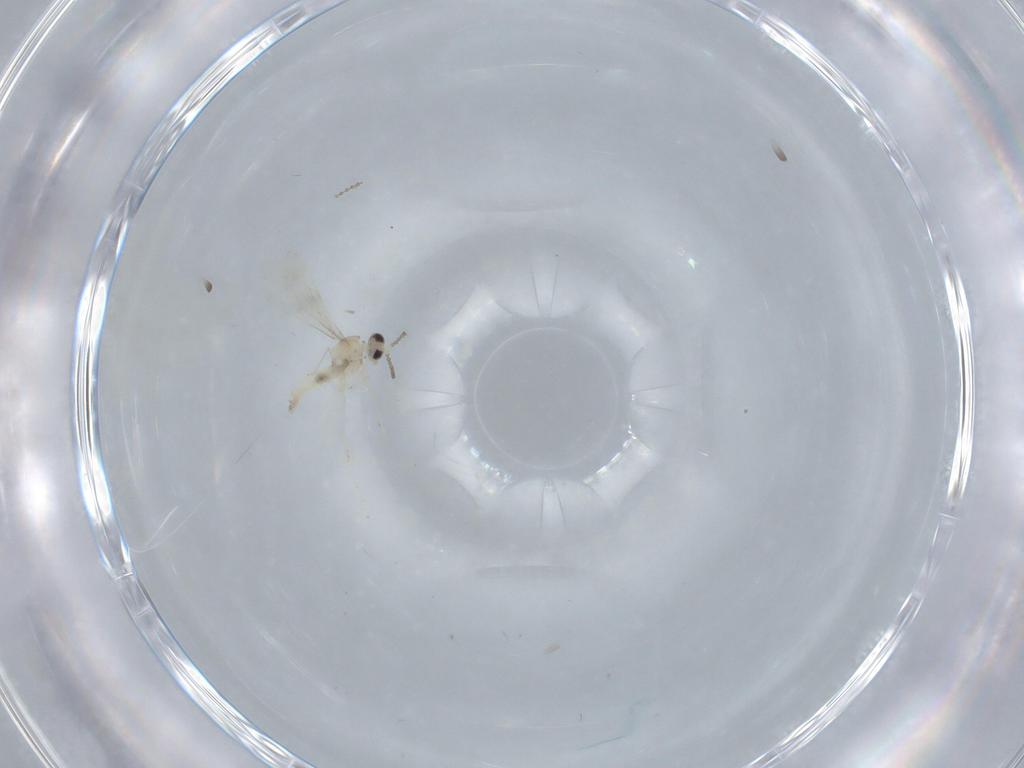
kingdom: Animalia
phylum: Arthropoda
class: Insecta
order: Diptera
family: Cecidomyiidae
